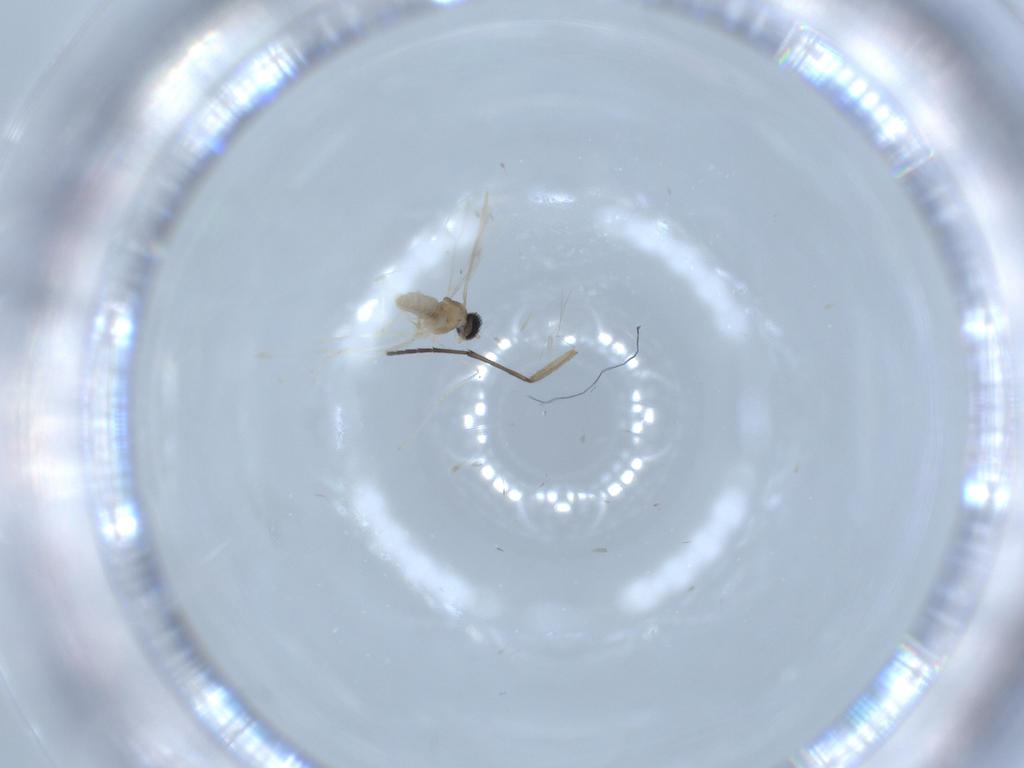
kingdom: Animalia
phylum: Arthropoda
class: Insecta
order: Diptera
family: Cecidomyiidae
